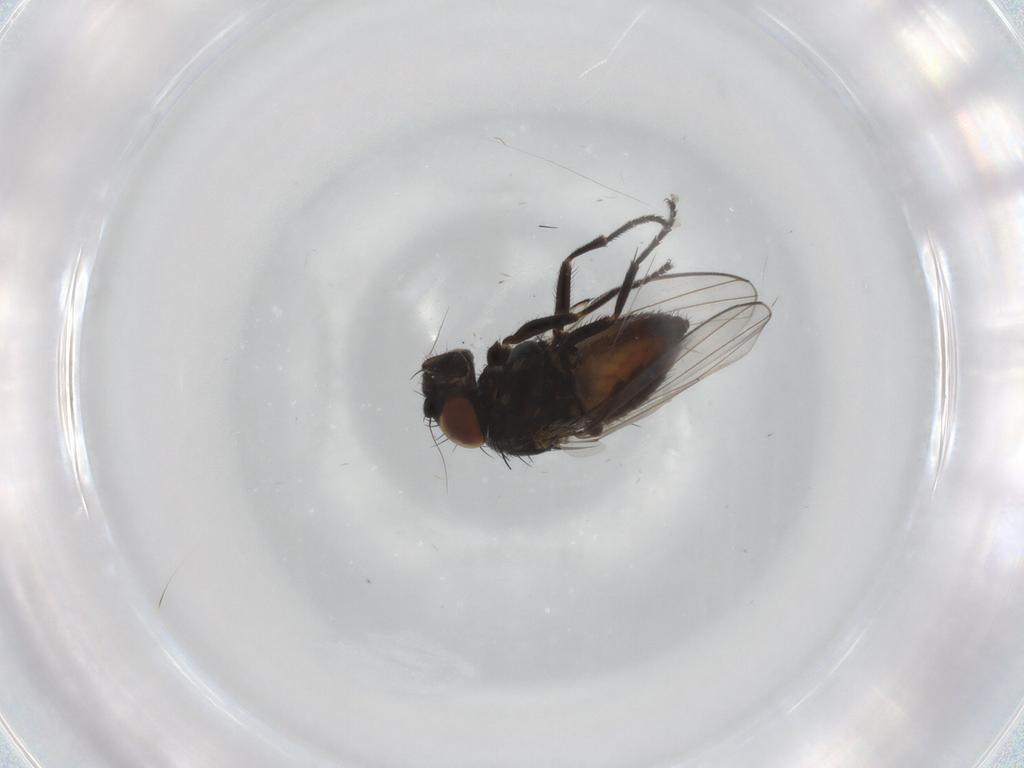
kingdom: Animalia
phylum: Arthropoda
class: Insecta
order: Diptera
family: Milichiidae
